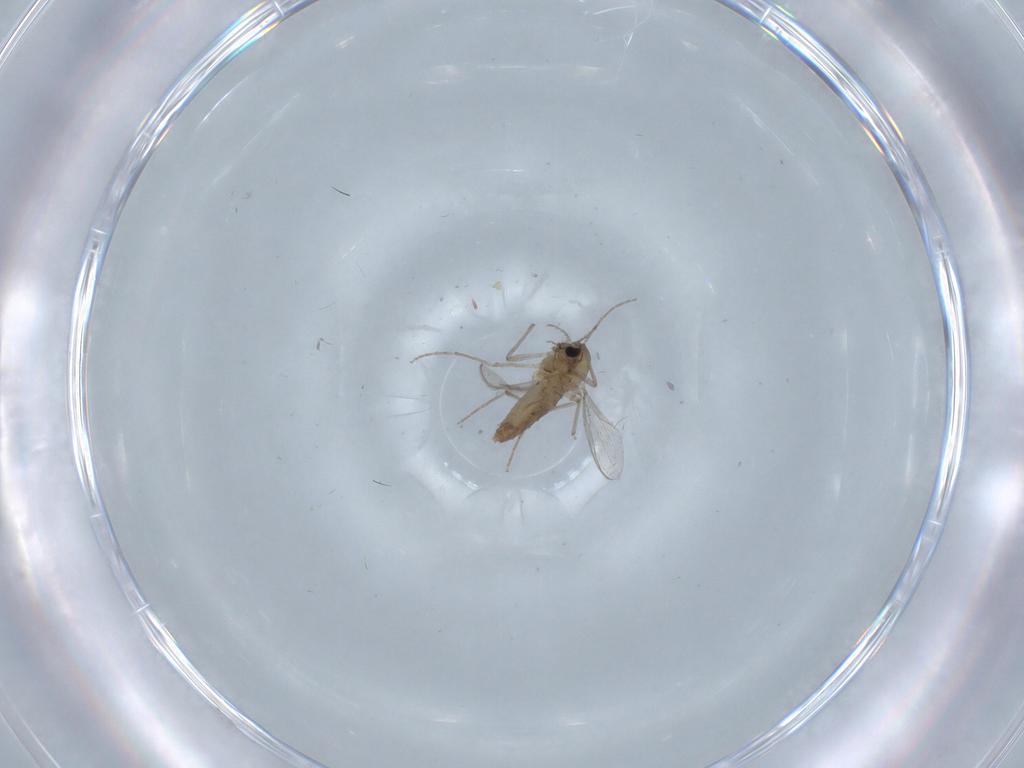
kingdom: Animalia
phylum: Arthropoda
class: Insecta
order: Diptera
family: Chironomidae
